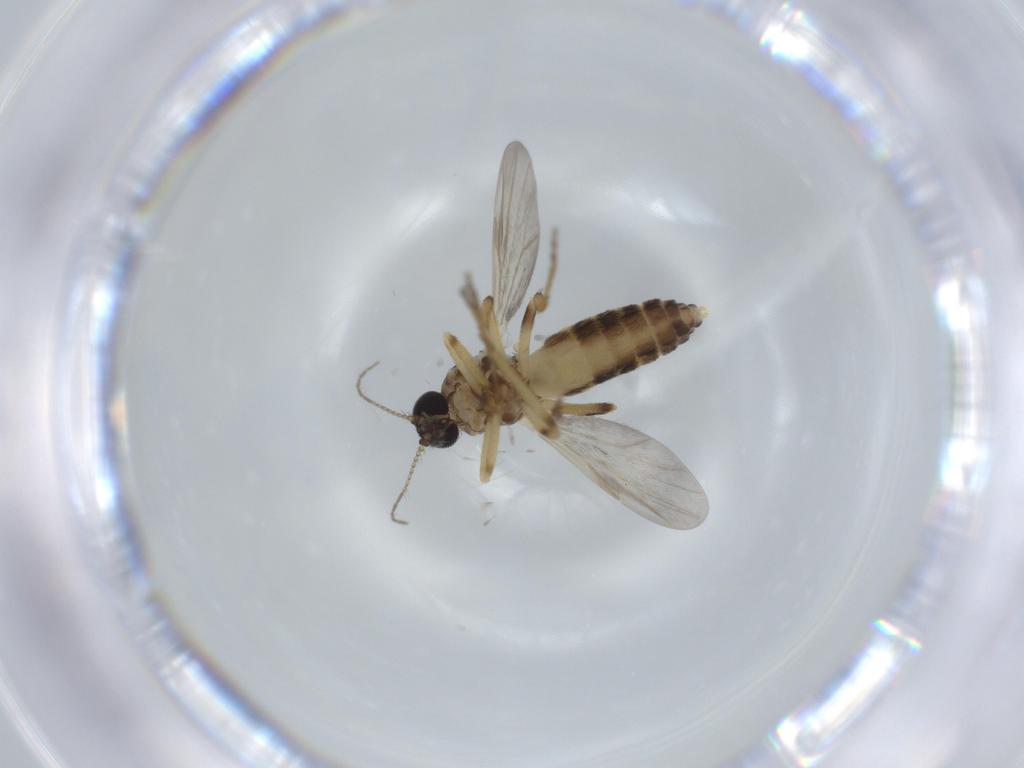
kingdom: Animalia
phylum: Arthropoda
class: Insecta
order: Diptera
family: Ceratopogonidae
